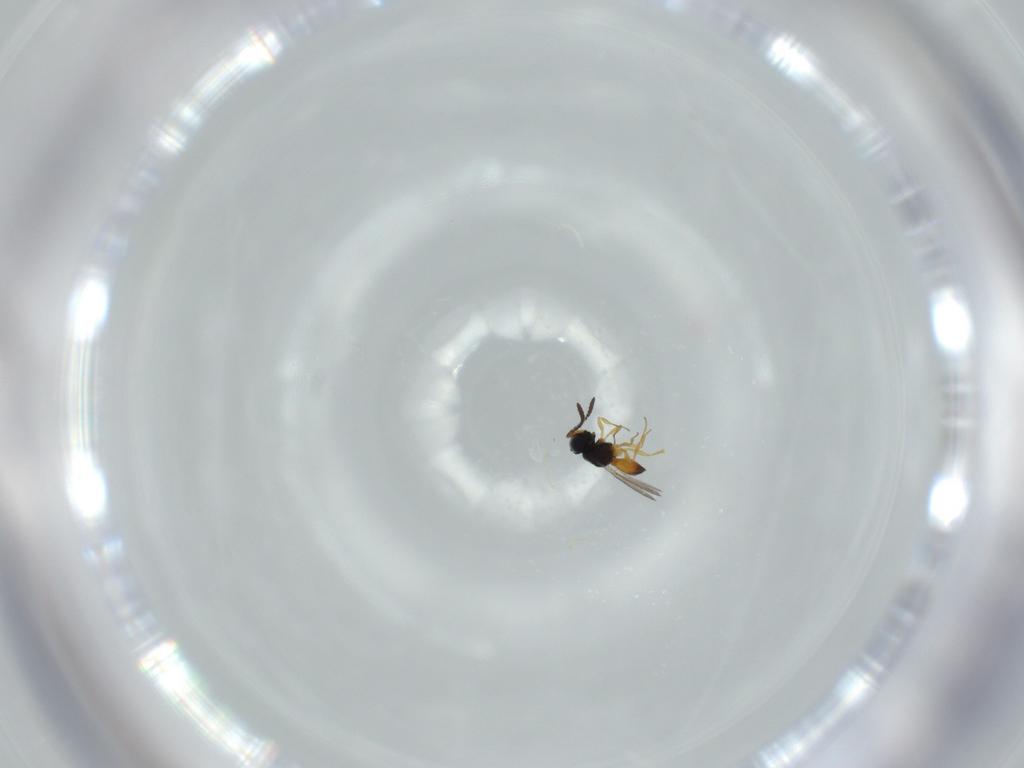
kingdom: Animalia
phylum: Arthropoda
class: Insecta
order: Hymenoptera
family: Scelionidae
